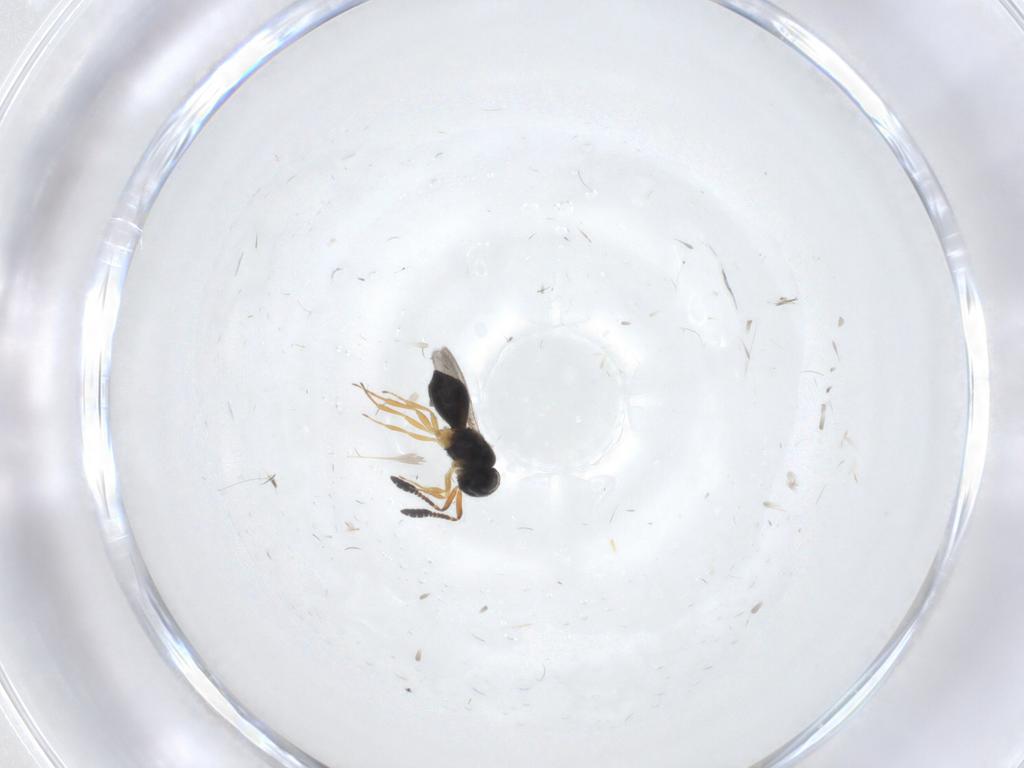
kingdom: Animalia
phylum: Arthropoda
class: Insecta
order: Hymenoptera
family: Scelionidae
